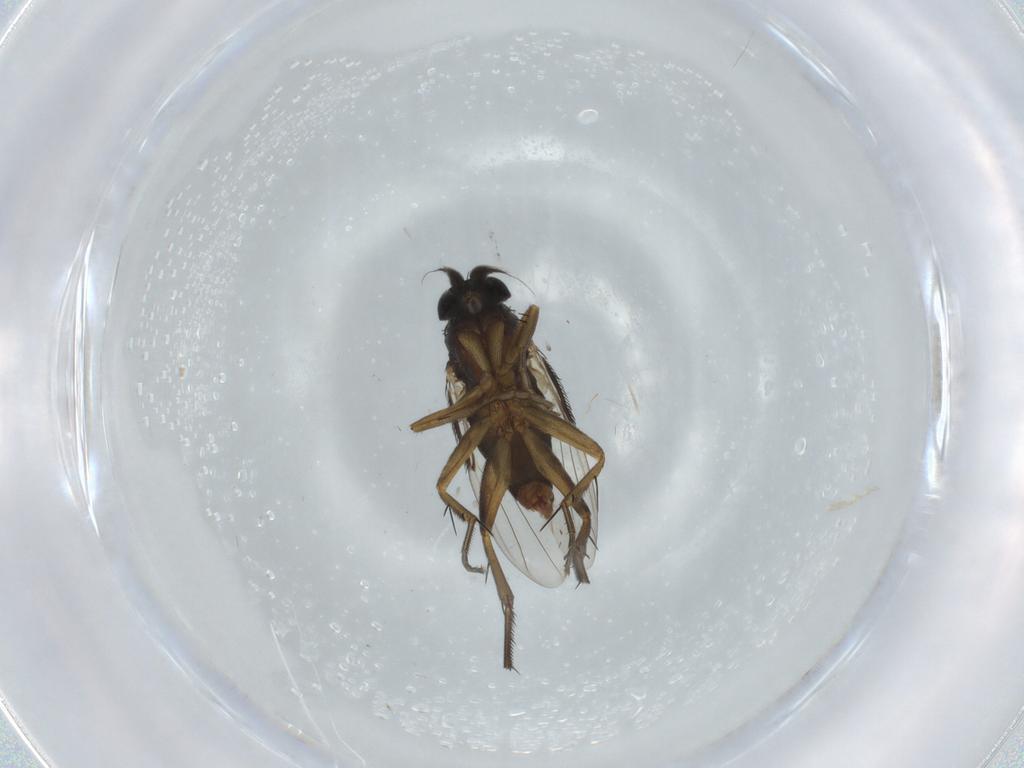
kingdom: Animalia
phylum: Arthropoda
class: Insecta
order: Diptera
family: Phoridae
